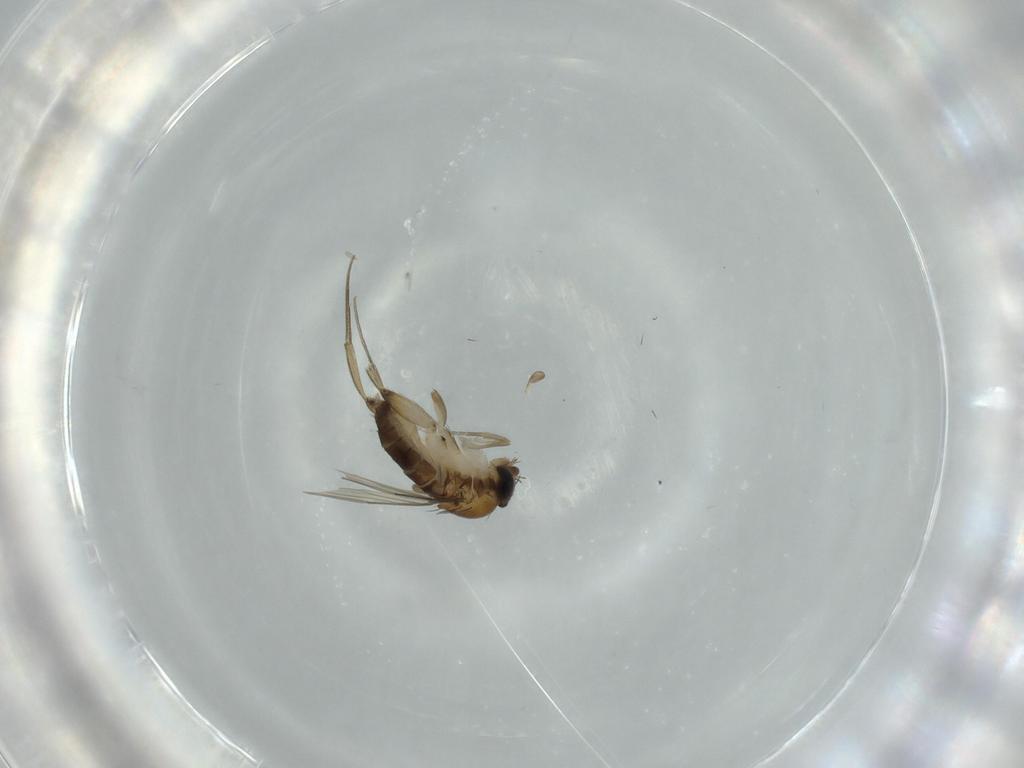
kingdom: Animalia
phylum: Arthropoda
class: Insecta
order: Diptera
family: Phoridae
